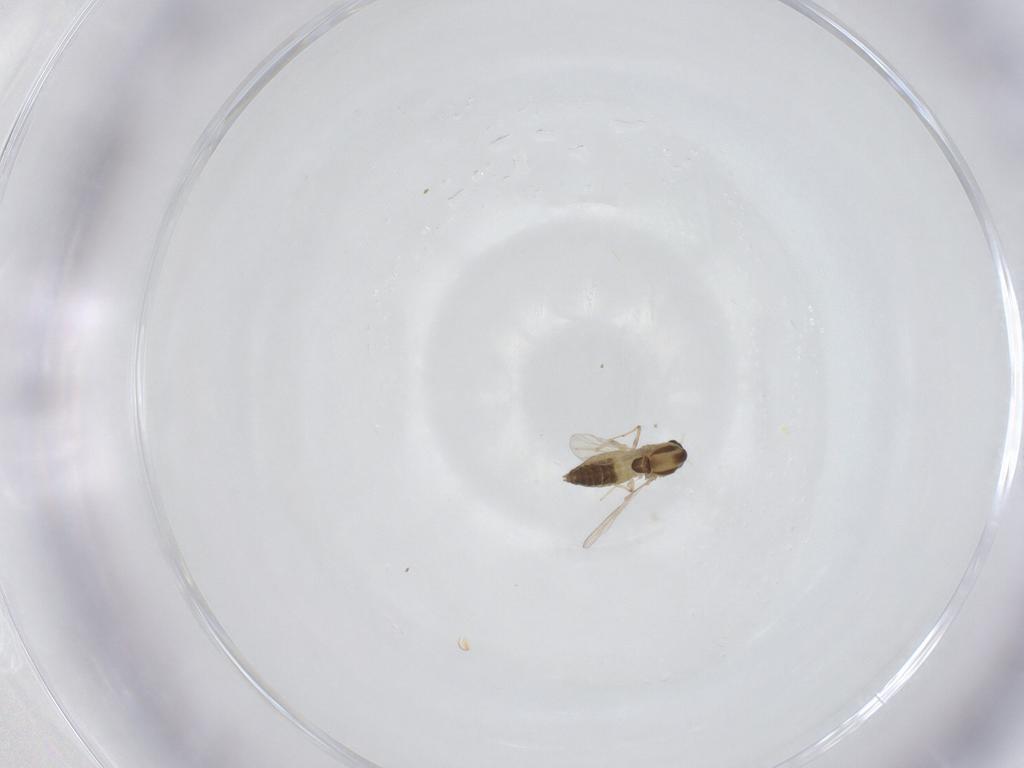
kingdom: Animalia
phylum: Arthropoda
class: Insecta
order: Diptera
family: Chironomidae
